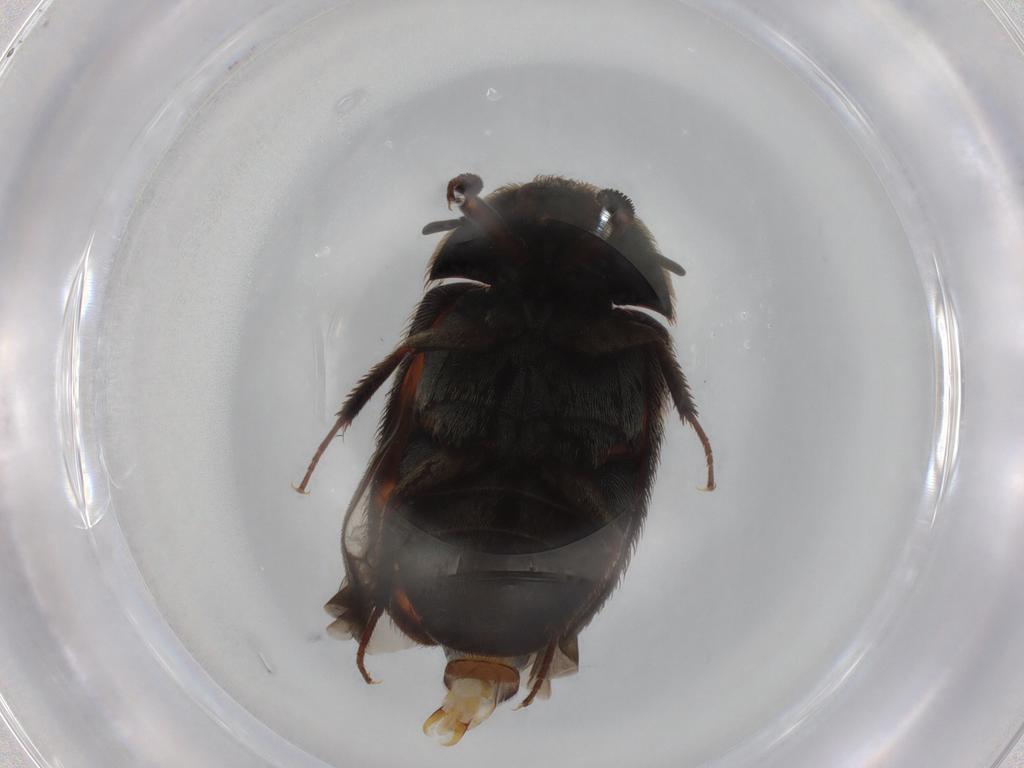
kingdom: Animalia
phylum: Arthropoda
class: Insecta
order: Coleoptera
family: Dermestidae
